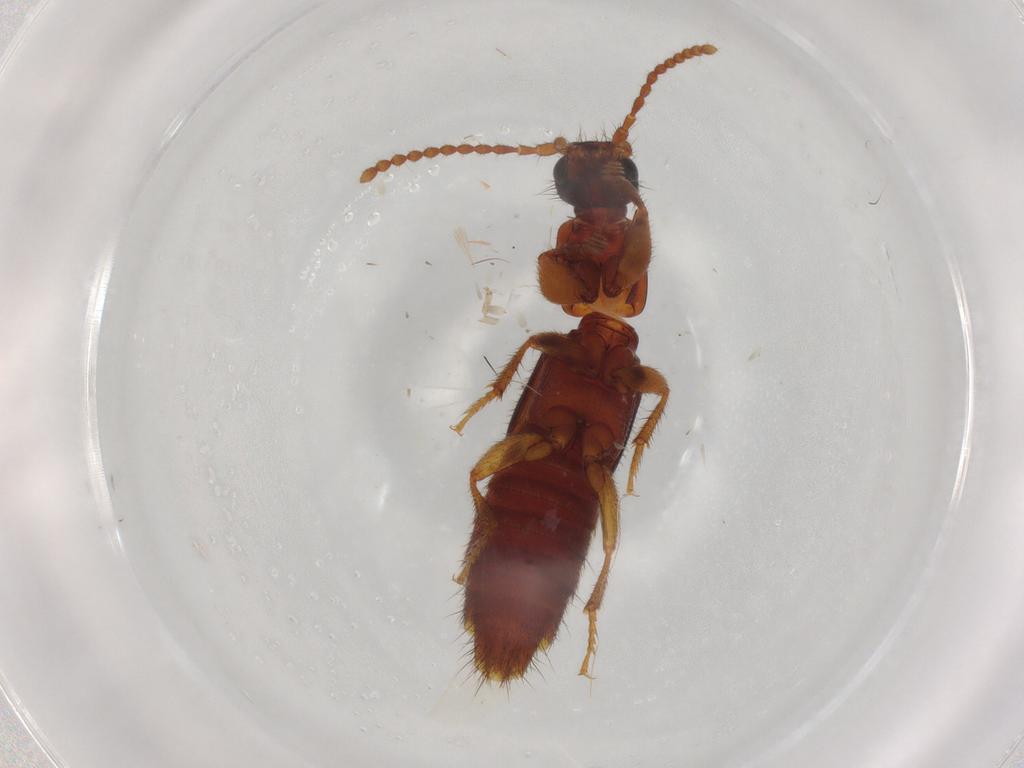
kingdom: Animalia
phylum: Arthropoda
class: Insecta
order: Coleoptera
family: Staphylinidae
